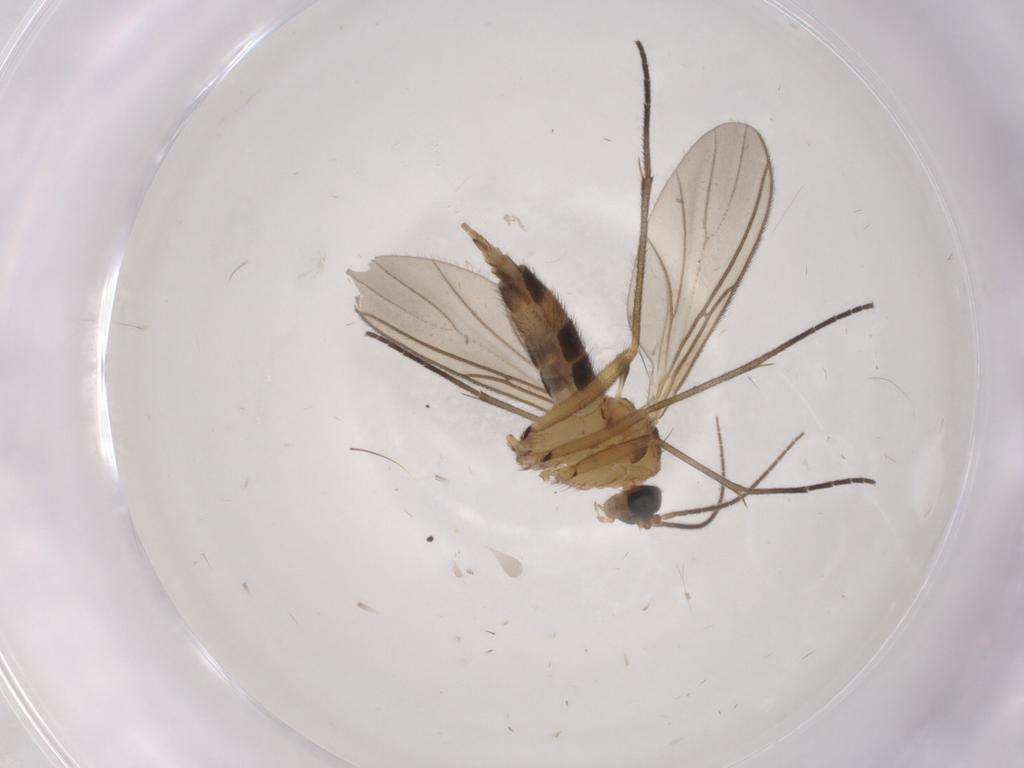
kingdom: Animalia
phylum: Arthropoda
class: Insecta
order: Diptera
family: Sciaridae
